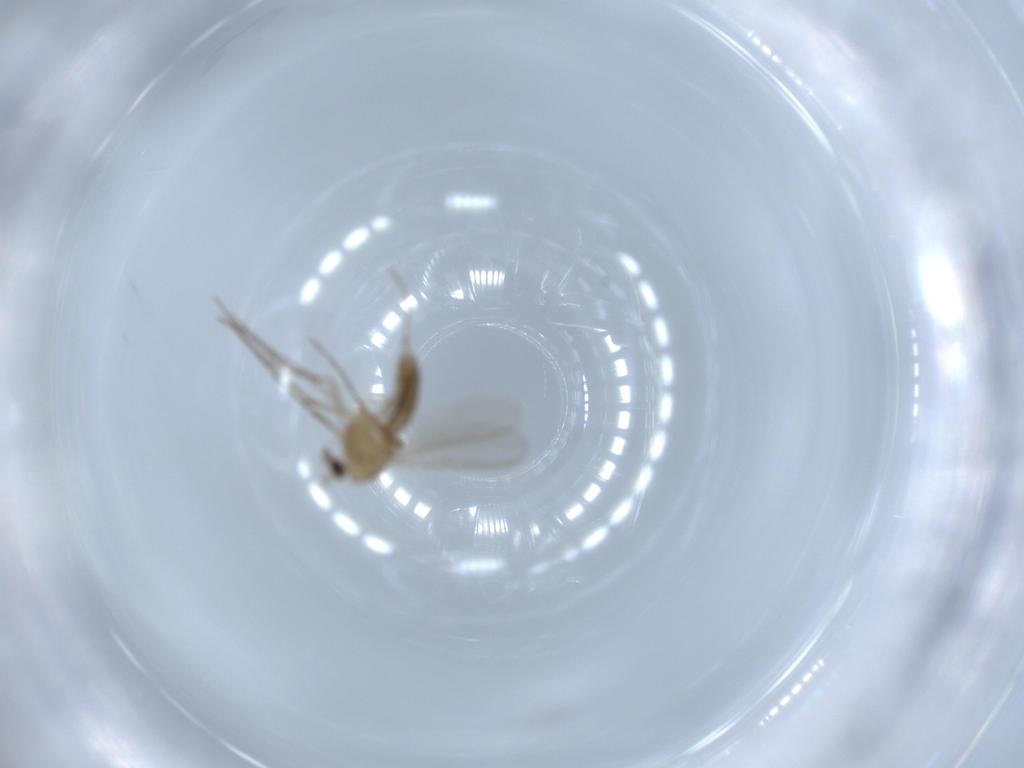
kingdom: Animalia
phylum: Arthropoda
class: Insecta
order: Diptera
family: Chironomidae
